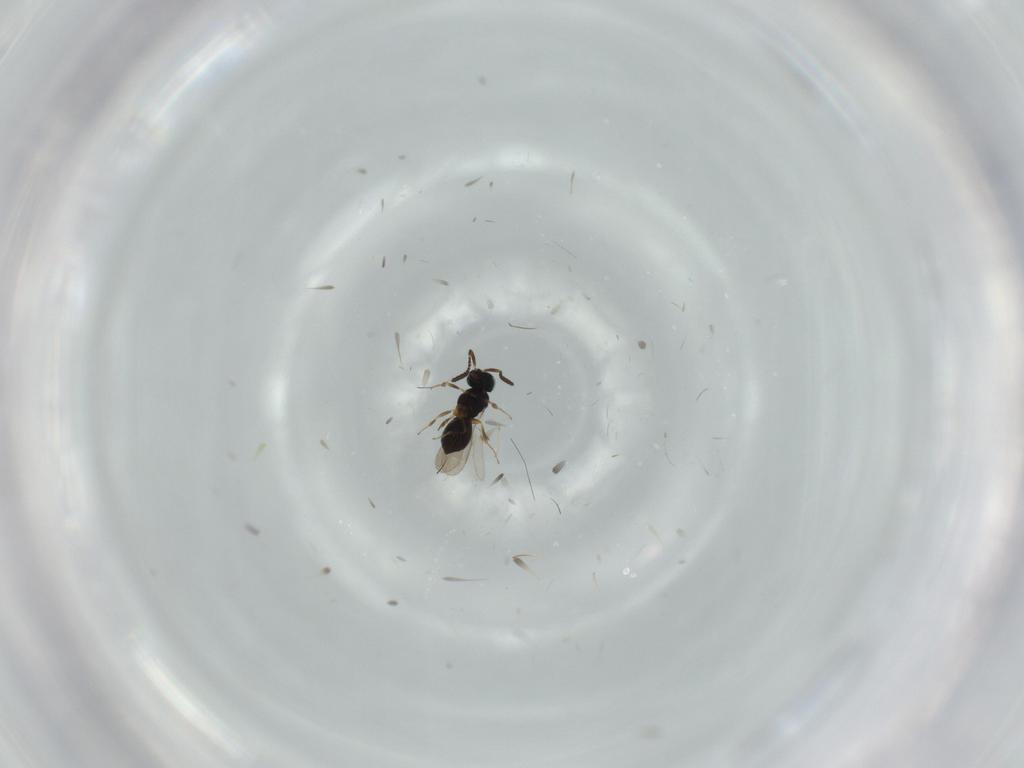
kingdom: Animalia
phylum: Arthropoda
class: Insecta
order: Hymenoptera
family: Scelionidae
